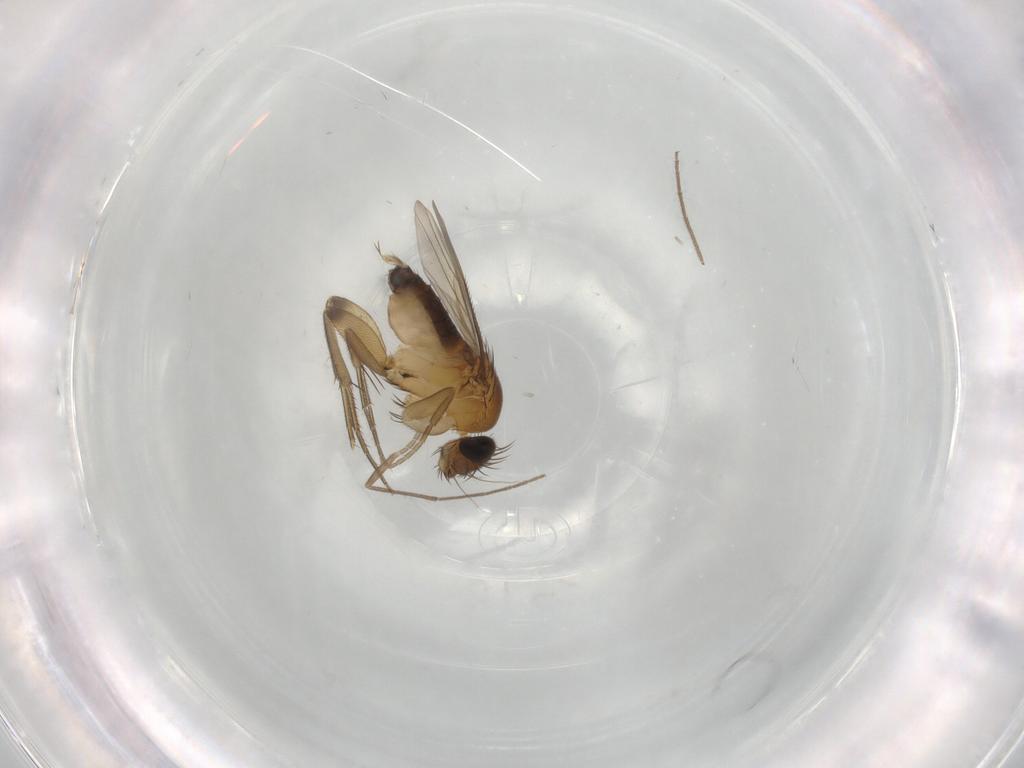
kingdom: Animalia
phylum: Arthropoda
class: Insecta
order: Diptera
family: Phoridae
